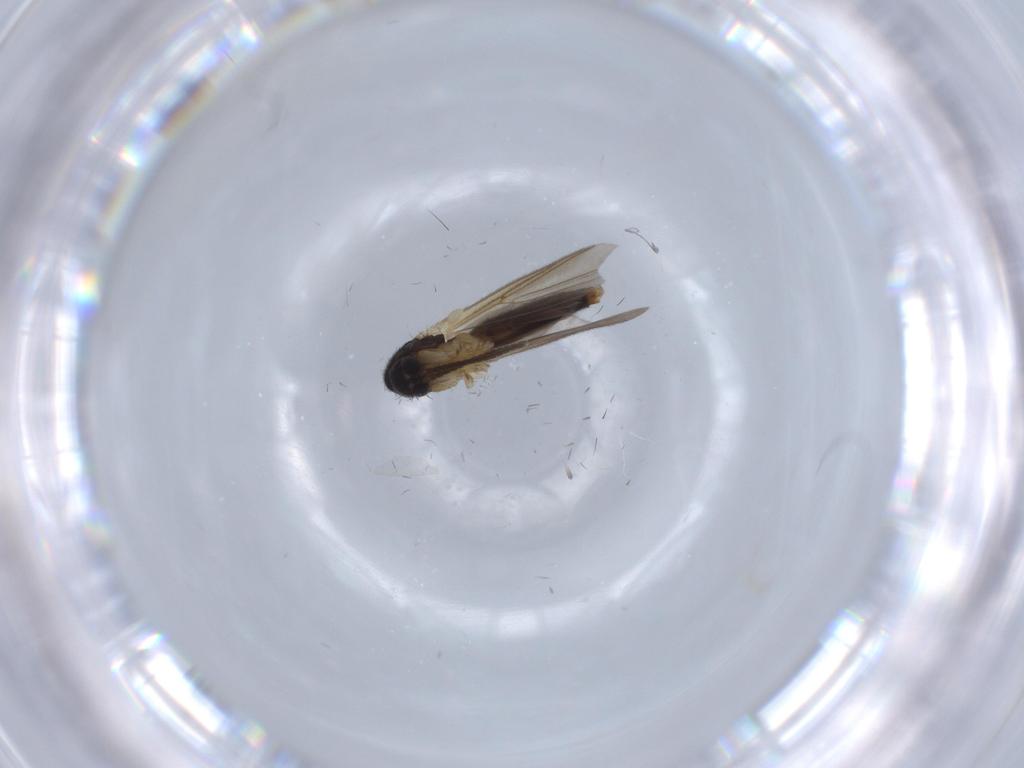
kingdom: Animalia
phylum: Arthropoda
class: Insecta
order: Diptera
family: Mycetophilidae
